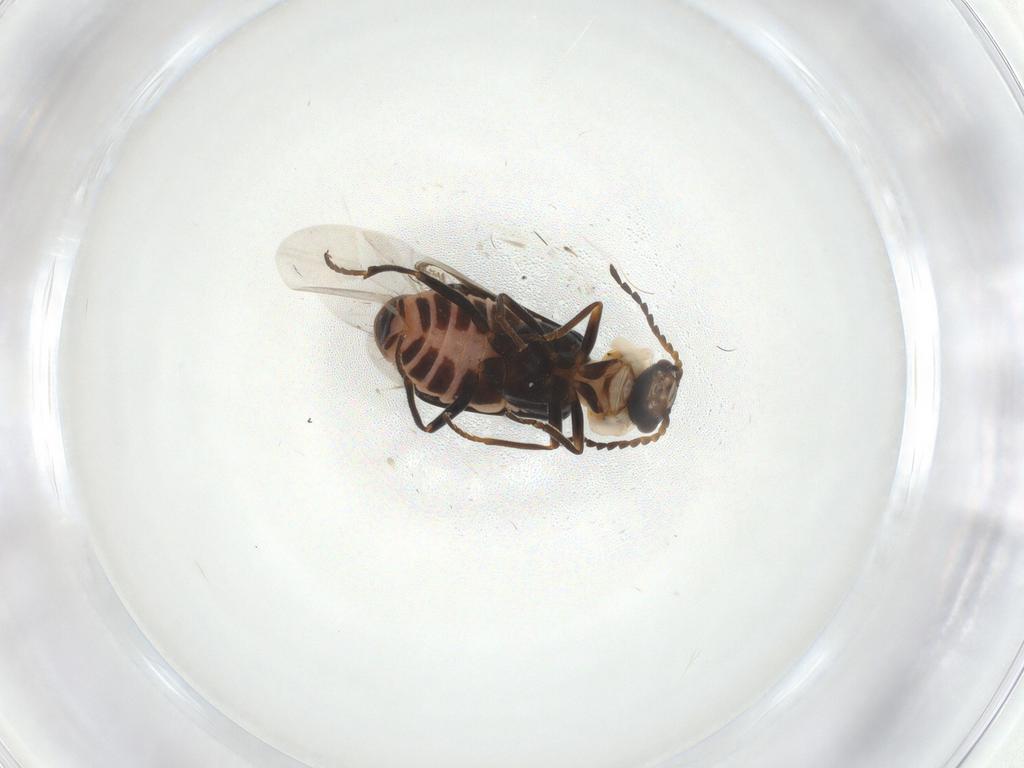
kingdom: Animalia
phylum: Arthropoda
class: Insecta
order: Coleoptera
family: Melyridae
